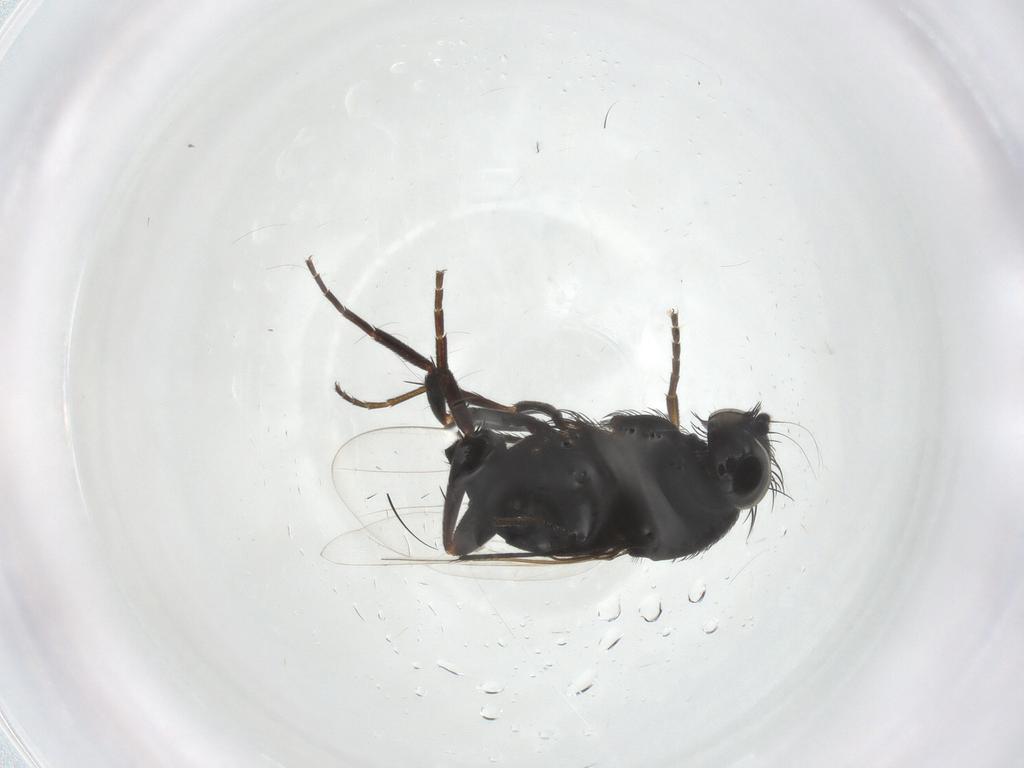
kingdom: Animalia
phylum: Arthropoda
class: Insecta
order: Diptera
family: Phoridae
